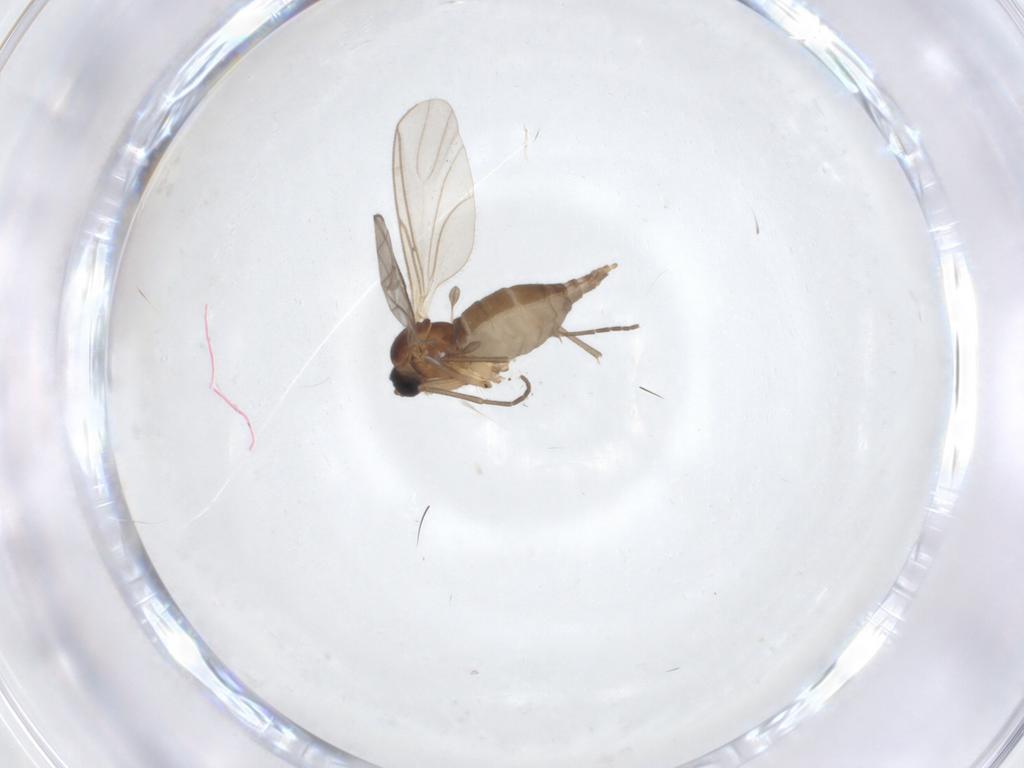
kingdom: Animalia
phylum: Arthropoda
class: Insecta
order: Diptera
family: Sciaridae
